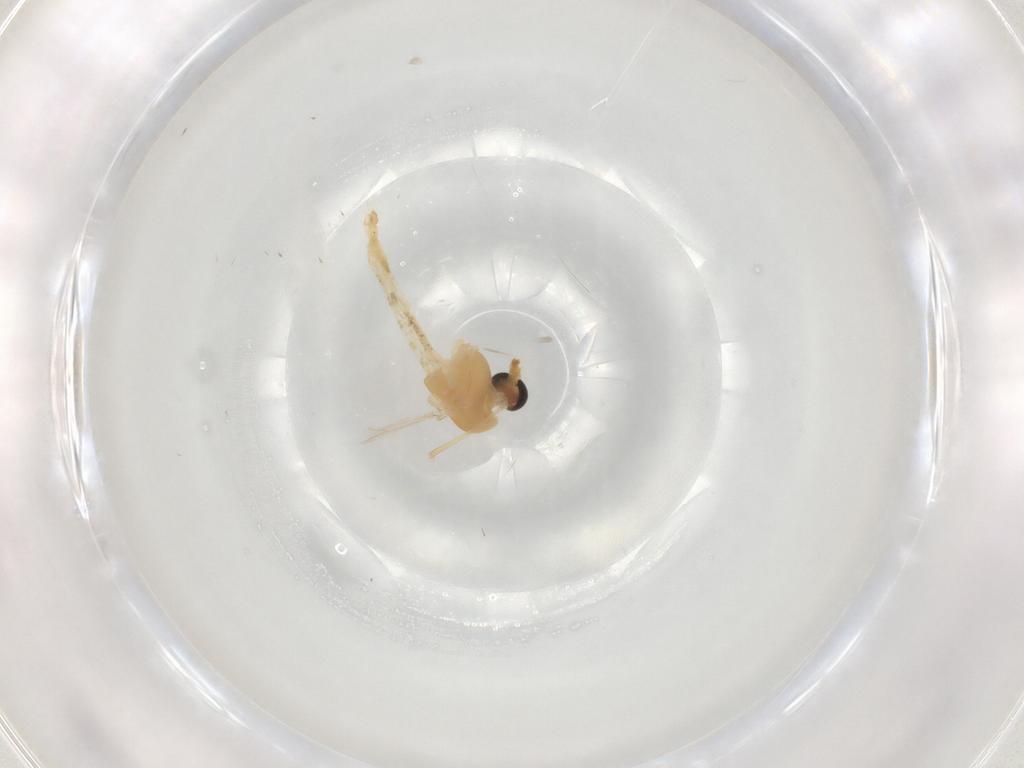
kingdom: Animalia
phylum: Arthropoda
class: Insecta
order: Diptera
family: Chironomidae
